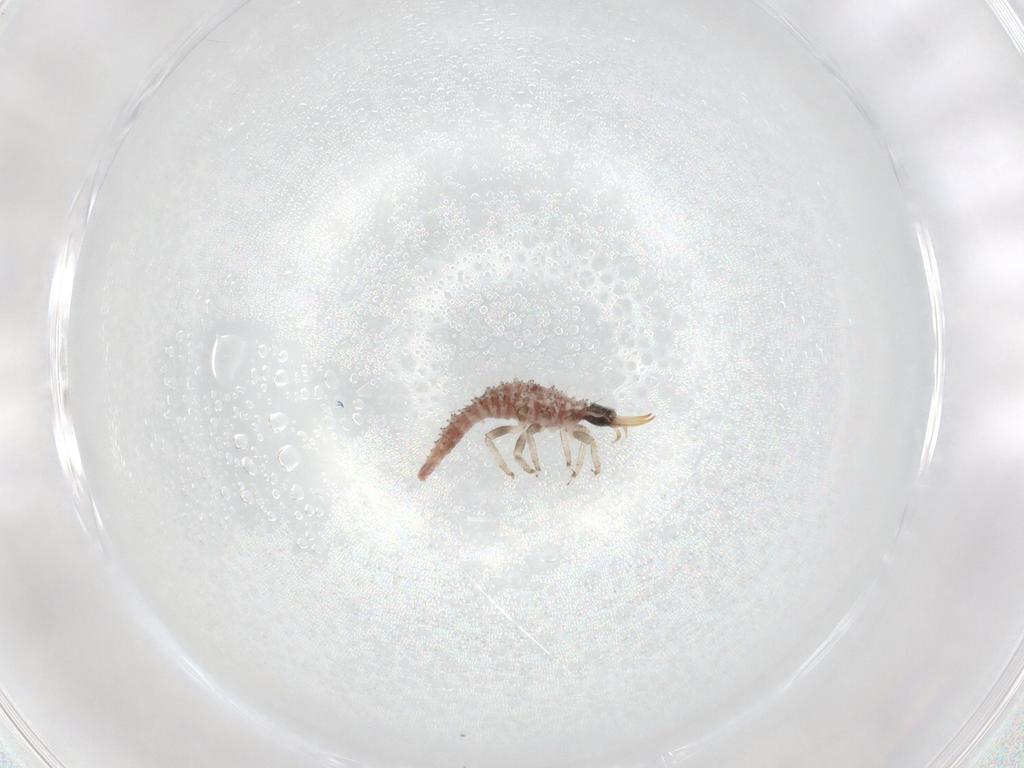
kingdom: Animalia
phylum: Arthropoda
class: Insecta
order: Neuroptera
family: Chrysopidae
